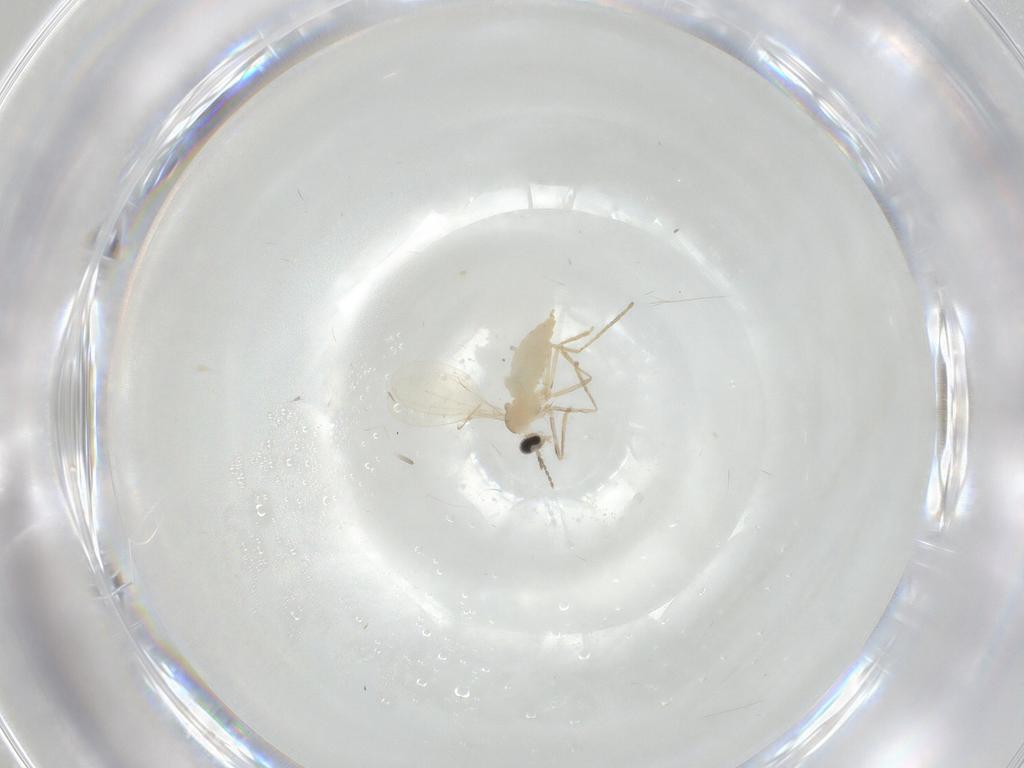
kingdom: Animalia
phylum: Arthropoda
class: Insecta
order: Diptera
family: Cecidomyiidae
